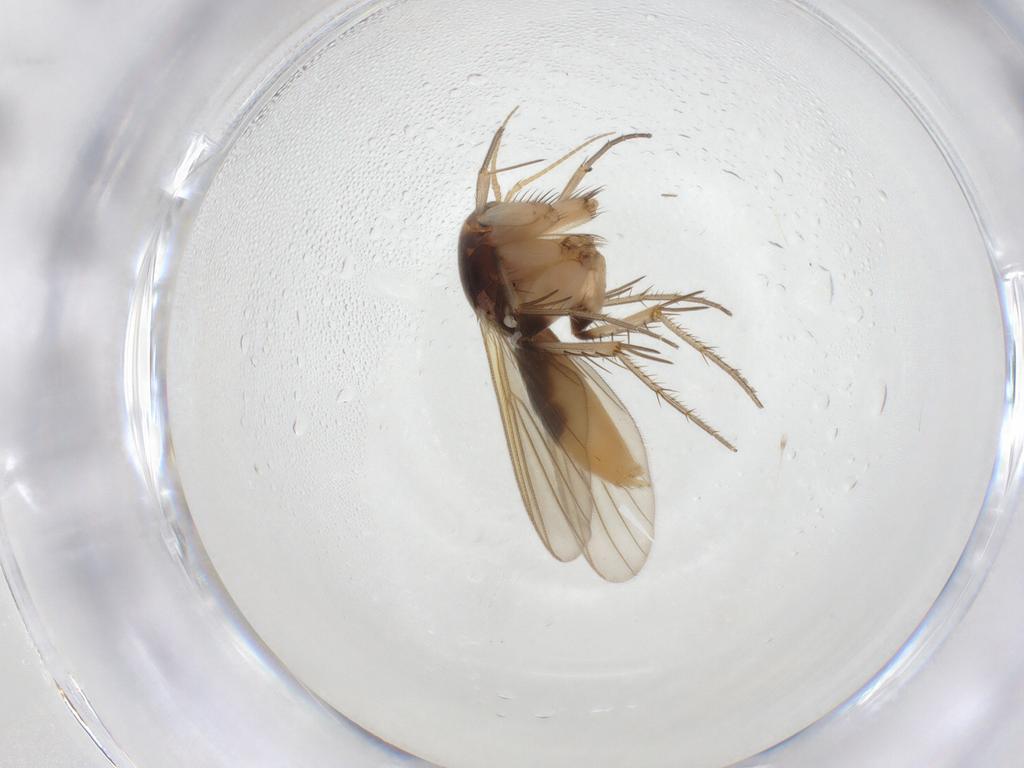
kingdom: Animalia
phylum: Arthropoda
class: Insecta
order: Diptera
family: Mycetophilidae
